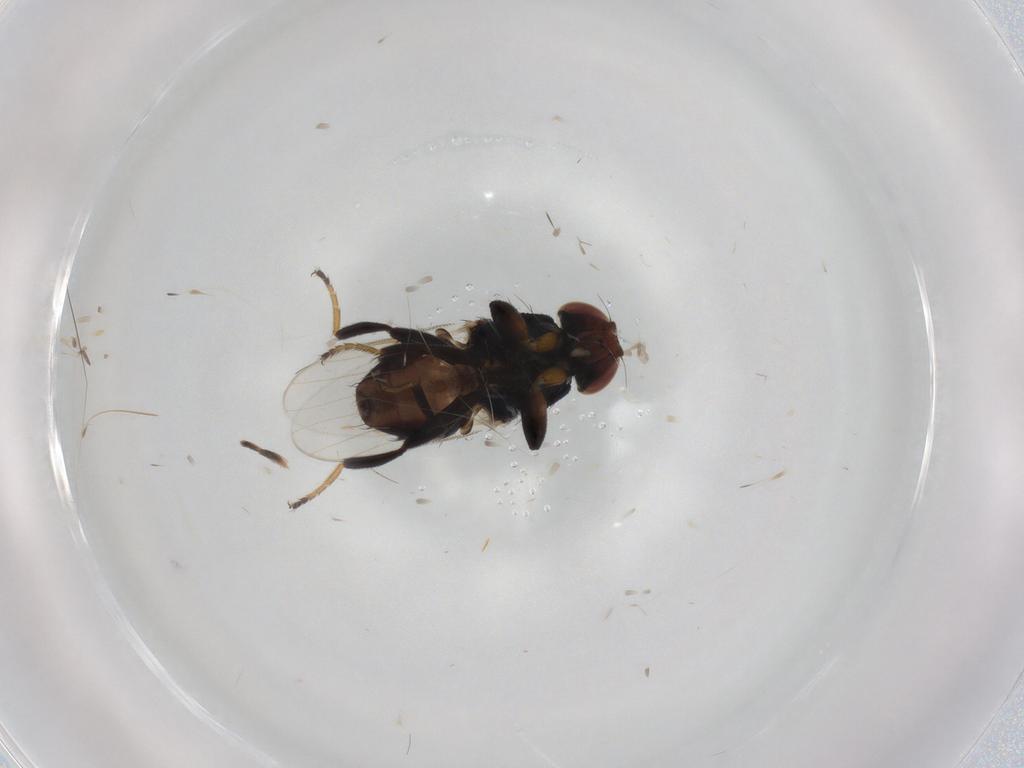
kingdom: Animalia
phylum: Arthropoda
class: Insecta
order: Diptera
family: Chloropidae
